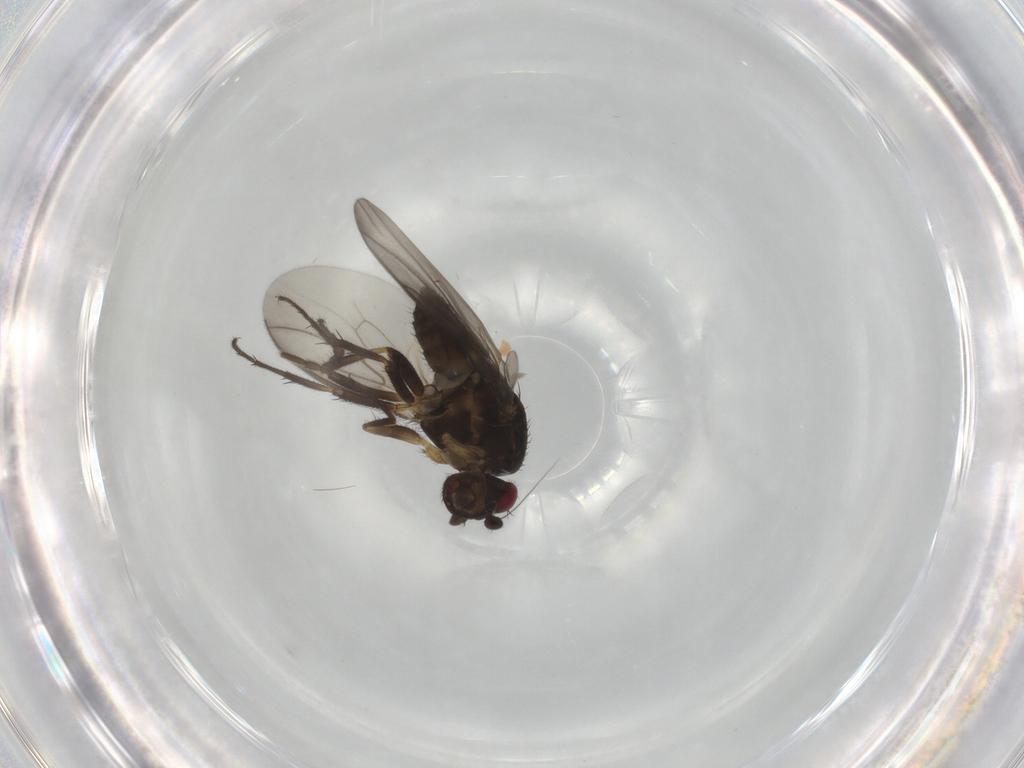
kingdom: Animalia
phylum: Arthropoda
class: Insecta
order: Diptera
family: Sphaeroceridae
